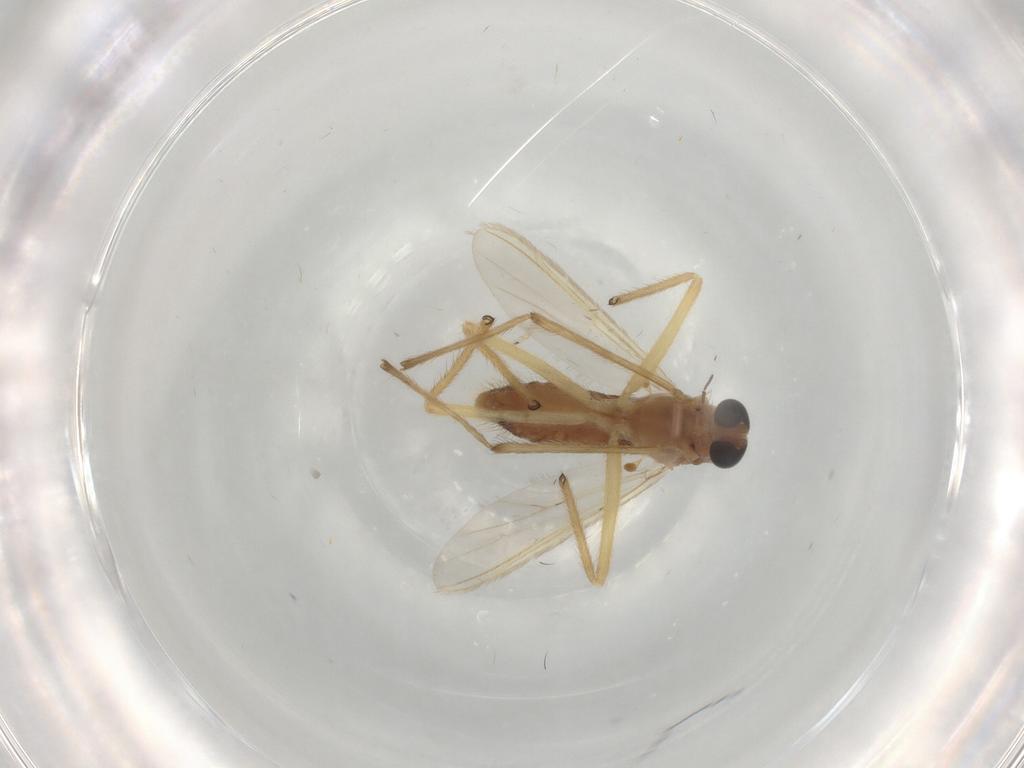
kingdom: Animalia
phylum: Arthropoda
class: Insecta
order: Diptera
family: Chironomidae
